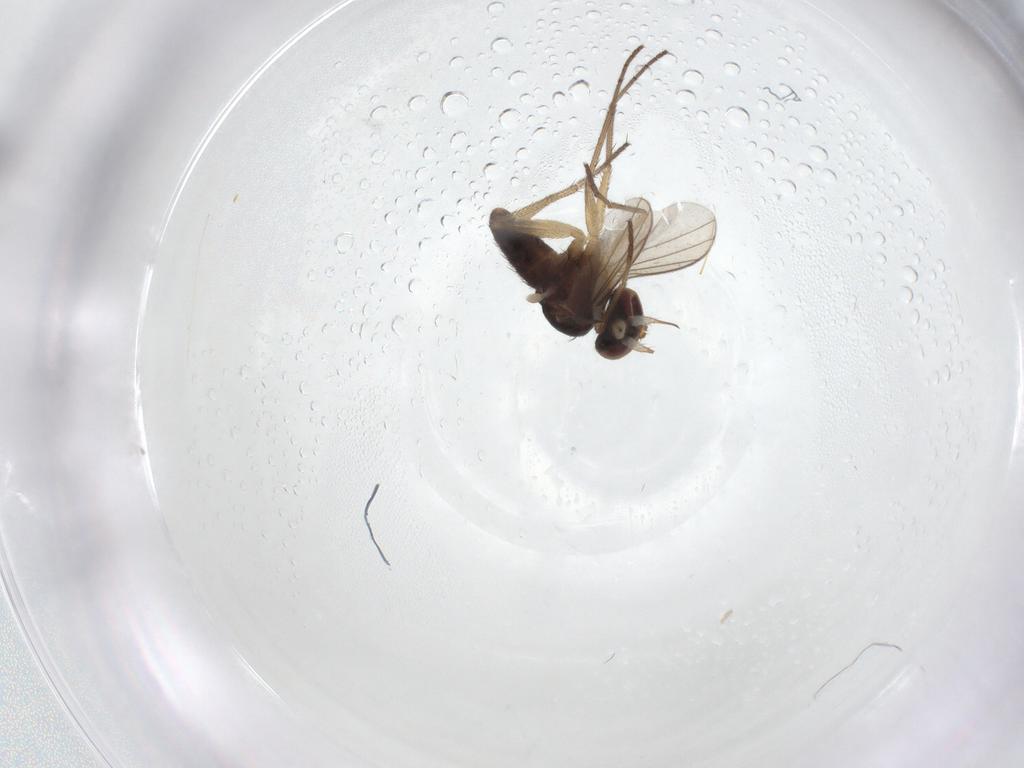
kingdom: Animalia
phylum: Arthropoda
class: Insecta
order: Diptera
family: Dolichopodidae
